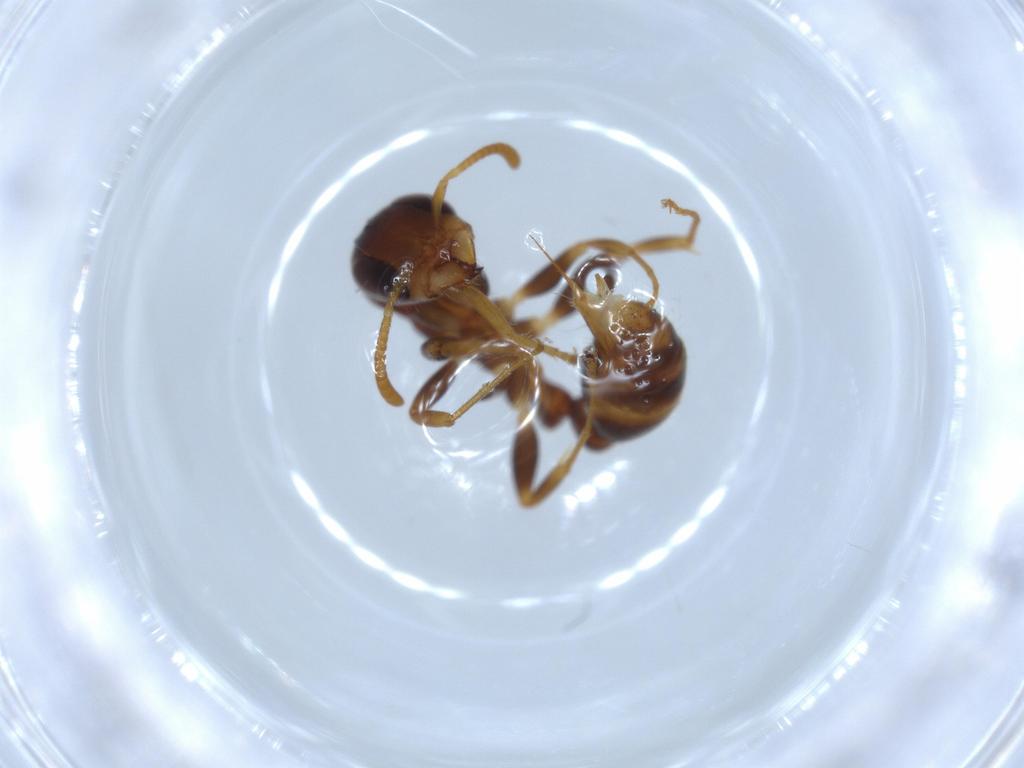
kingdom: Animalia
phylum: Arthropoda
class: Insecta
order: Hymenoptera
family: Formicidae
